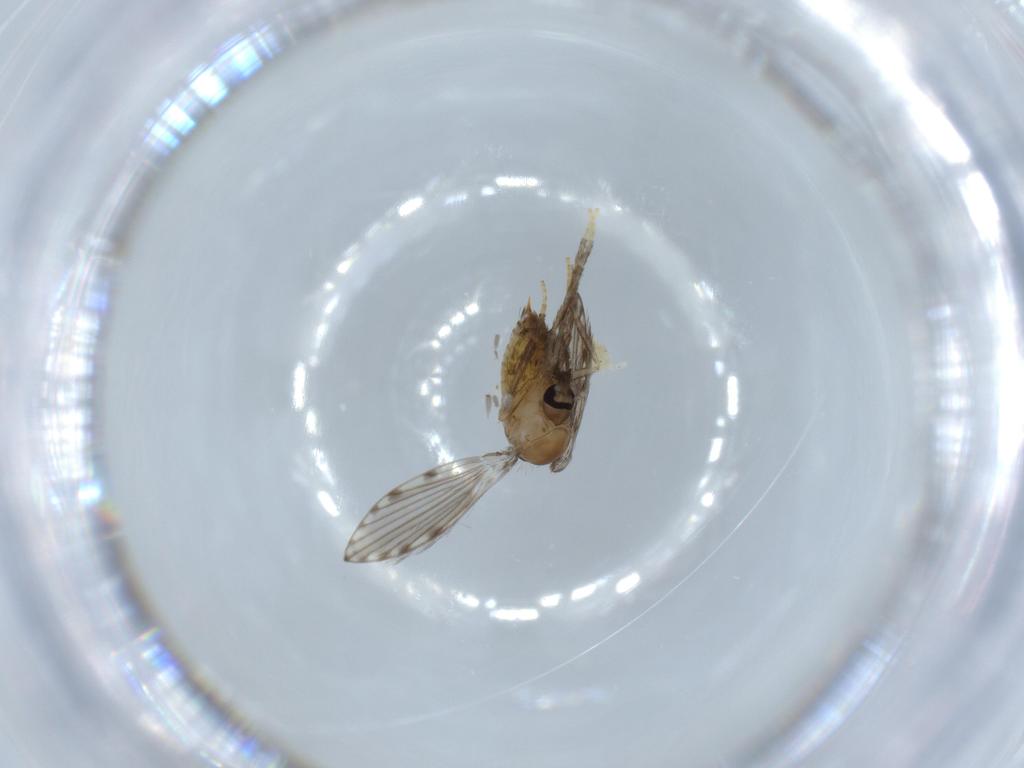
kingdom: Animalia
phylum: Arthropoda
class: Insecta
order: Diptera
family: Psychodidae
